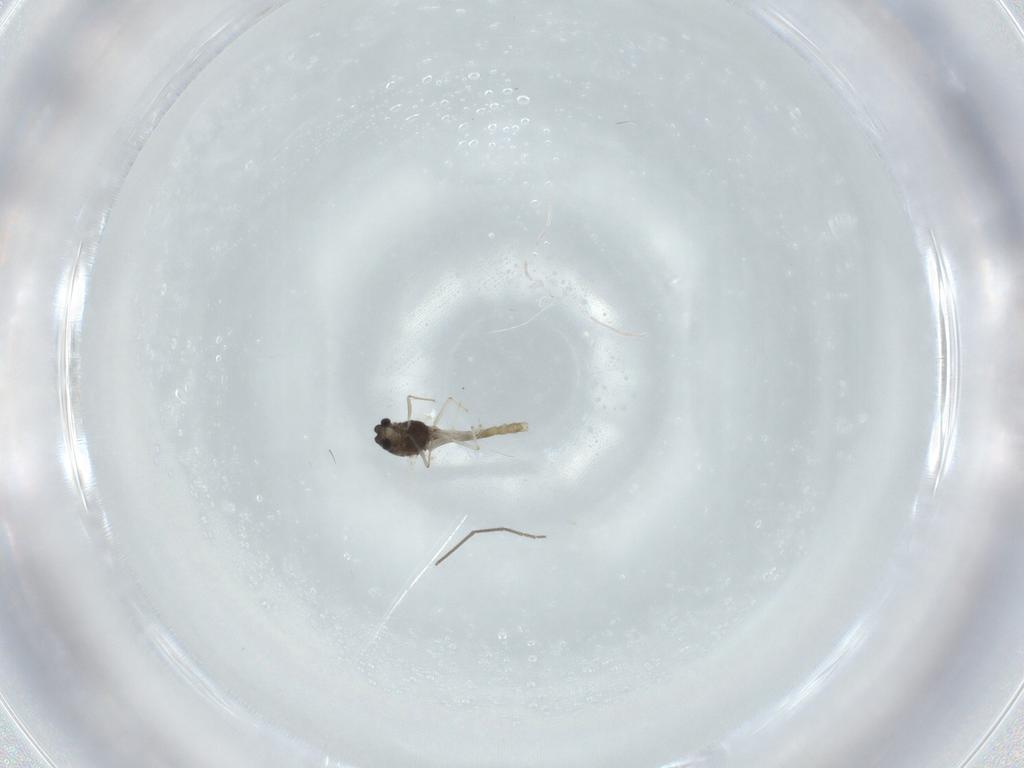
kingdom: Animalia
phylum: Arthropoda
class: Insecta
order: Diptera
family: Chironomidae
